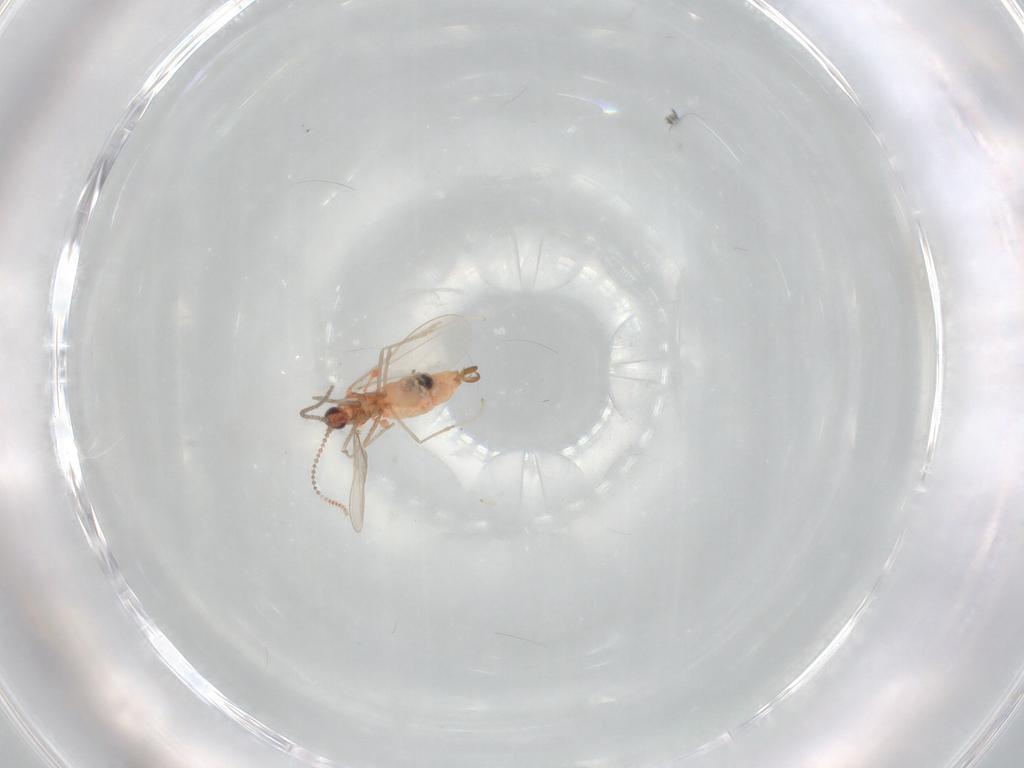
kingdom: Animalia
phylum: Arthropoda
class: Insecta
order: Diptera
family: Cecidomyiidae
